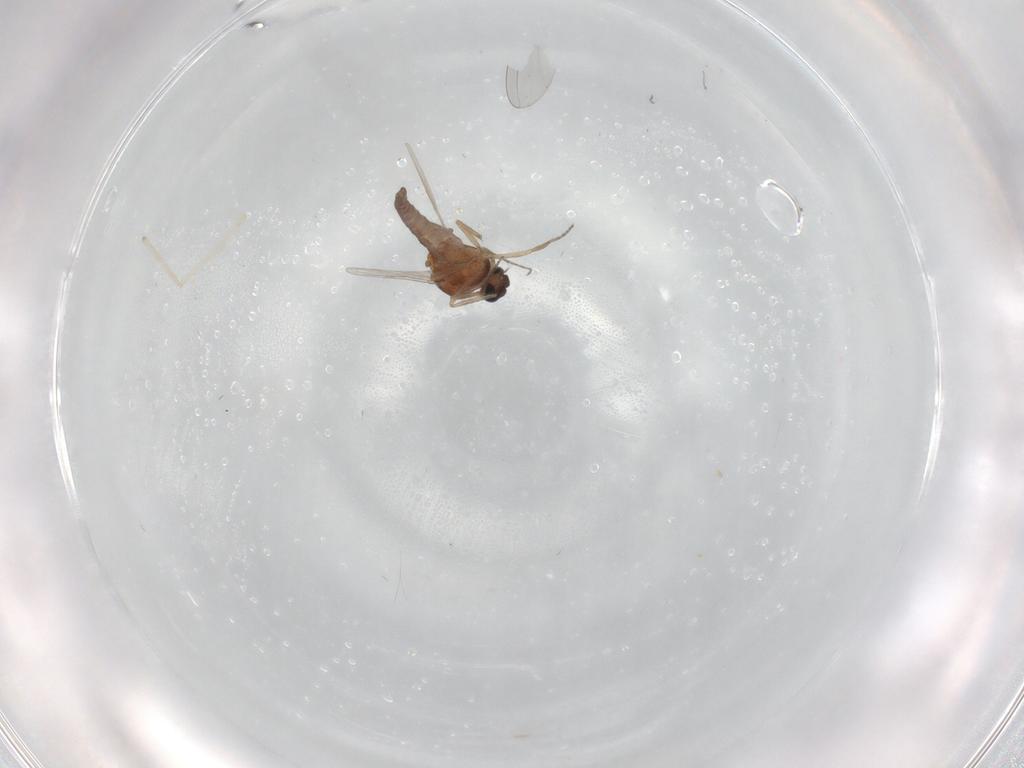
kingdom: Animalia
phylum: Arthropoda
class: Insecta
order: Diptera
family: Ceratopogonidae
